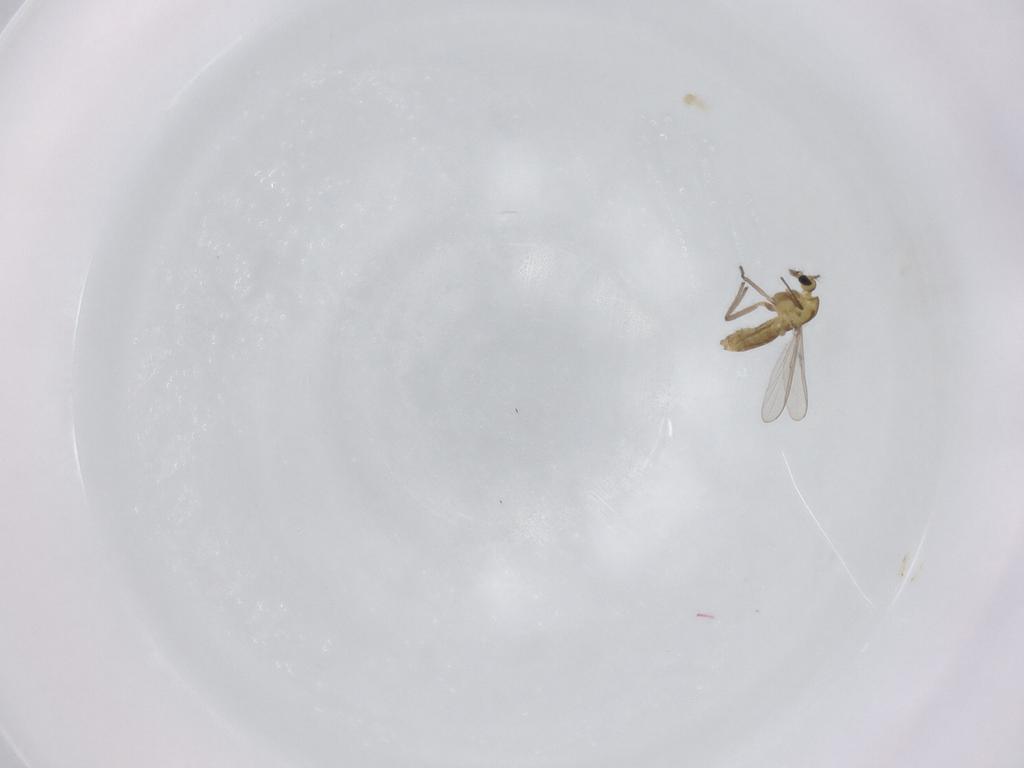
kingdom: Animalia
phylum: Arthropoda
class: Insecta
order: Diptera
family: Chironomidae
